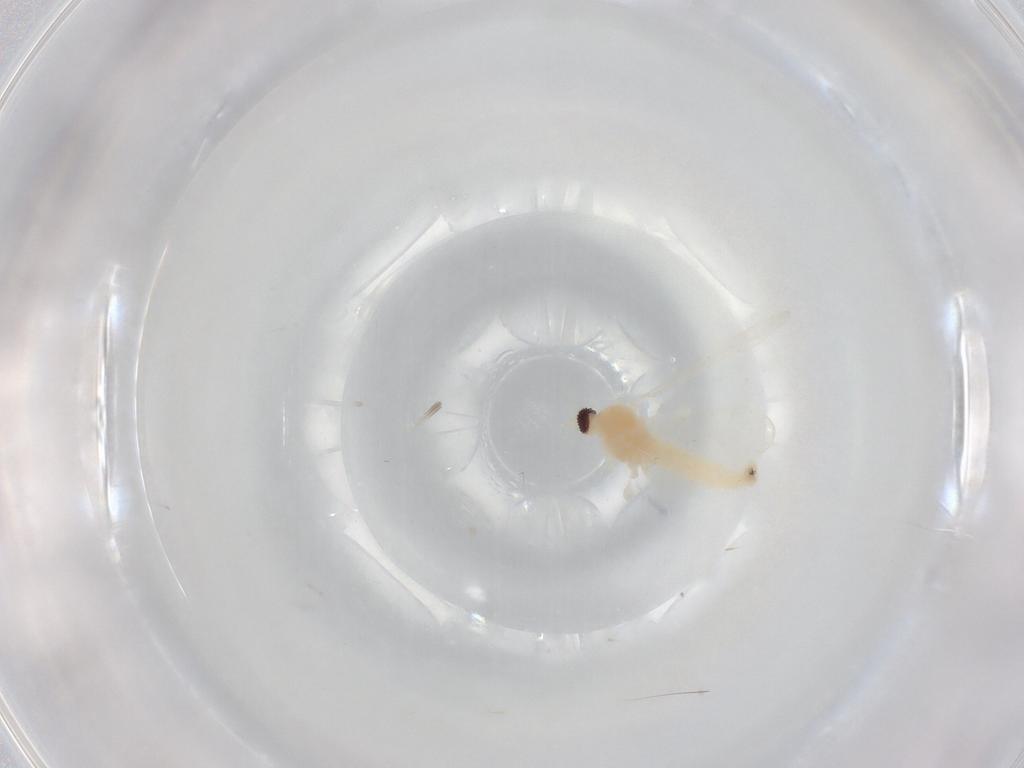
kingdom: Animalia
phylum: Arthropoda
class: Insecta
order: Diptera
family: Cecidomyiidae
